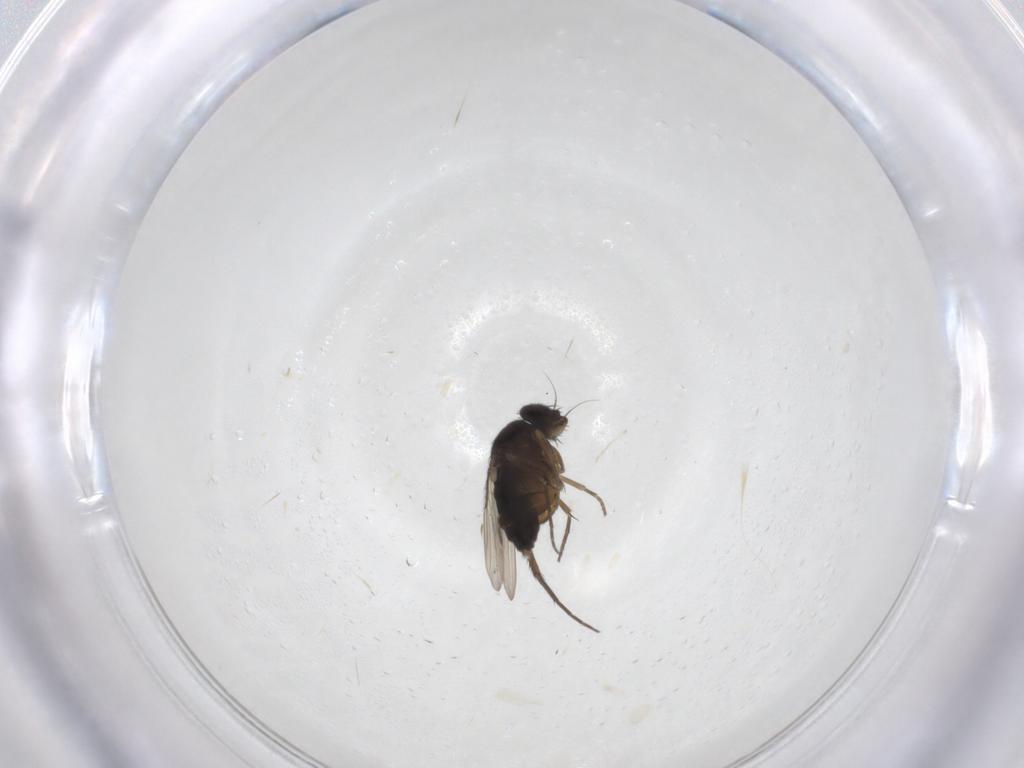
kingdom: Animalia
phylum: Arthropoda
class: Insecta
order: Diptera
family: Phoridae
